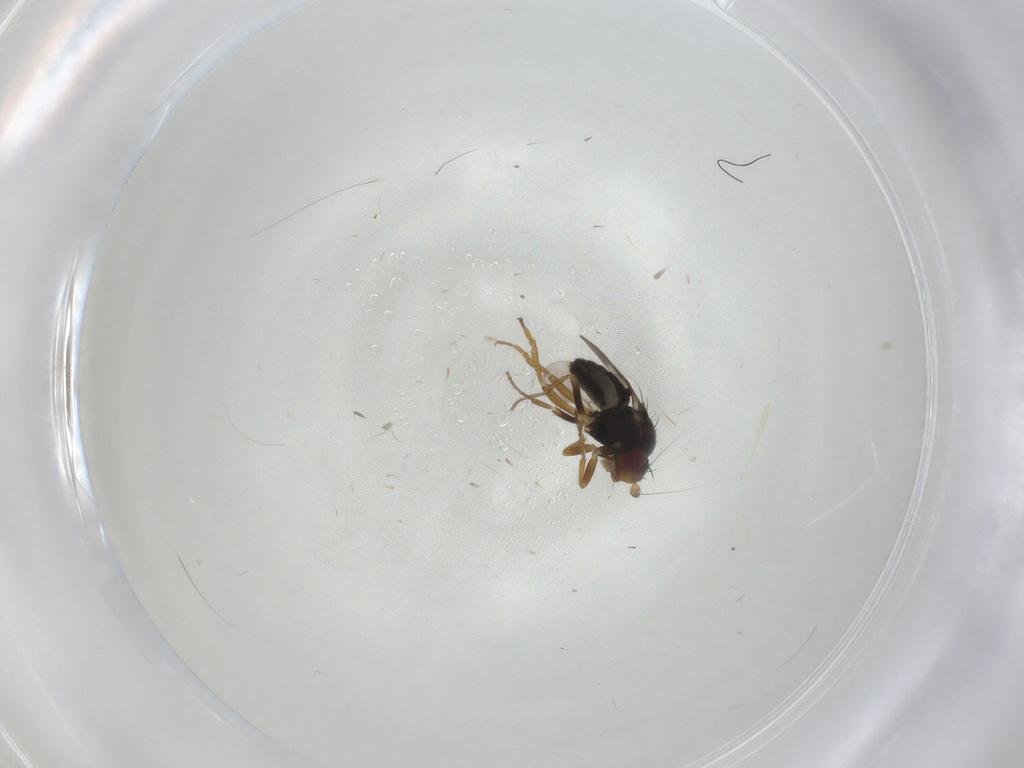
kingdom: Animalia
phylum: Arthropoda
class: Insecta
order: Diptera
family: Sphaeroceridae
